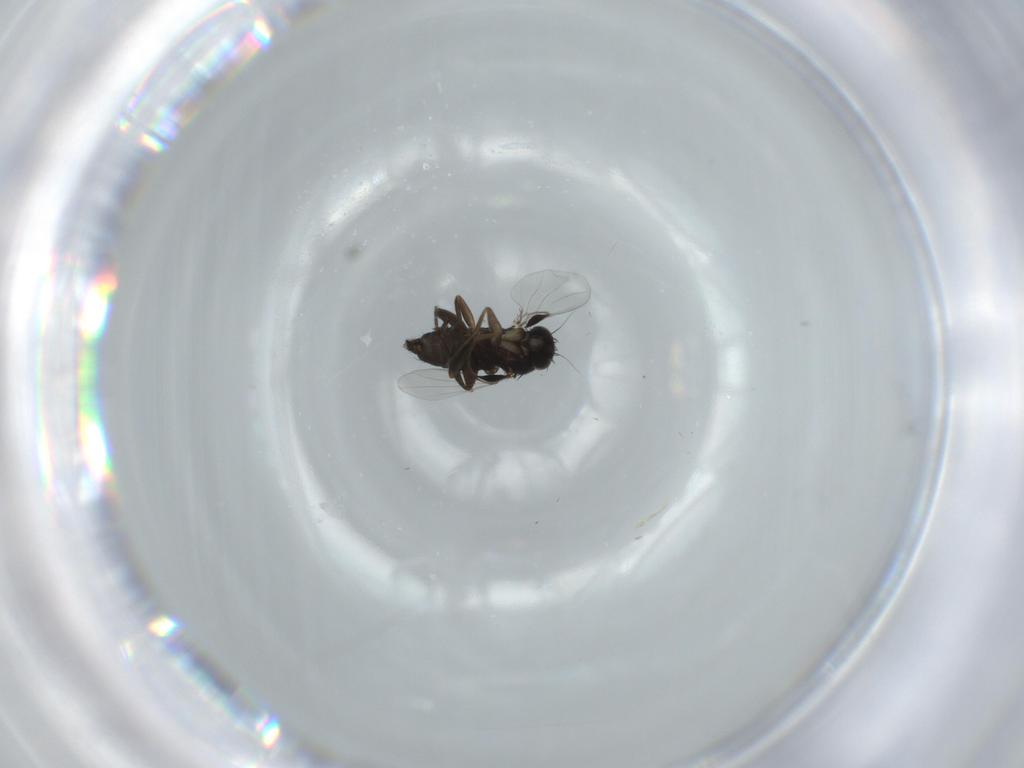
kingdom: Animalia
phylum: Arthropoda
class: Insecta
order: Diptera
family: Phoridae
